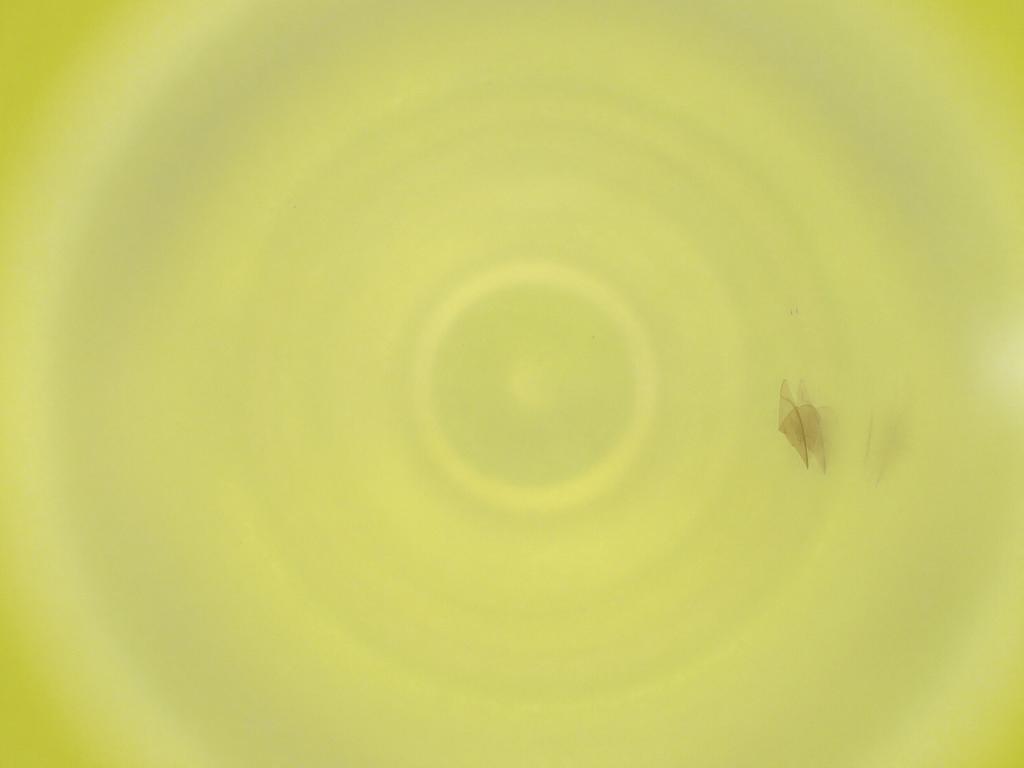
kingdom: Animalia
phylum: Arthropoda
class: Insecta
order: Diptera
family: Cecidomyiidae
